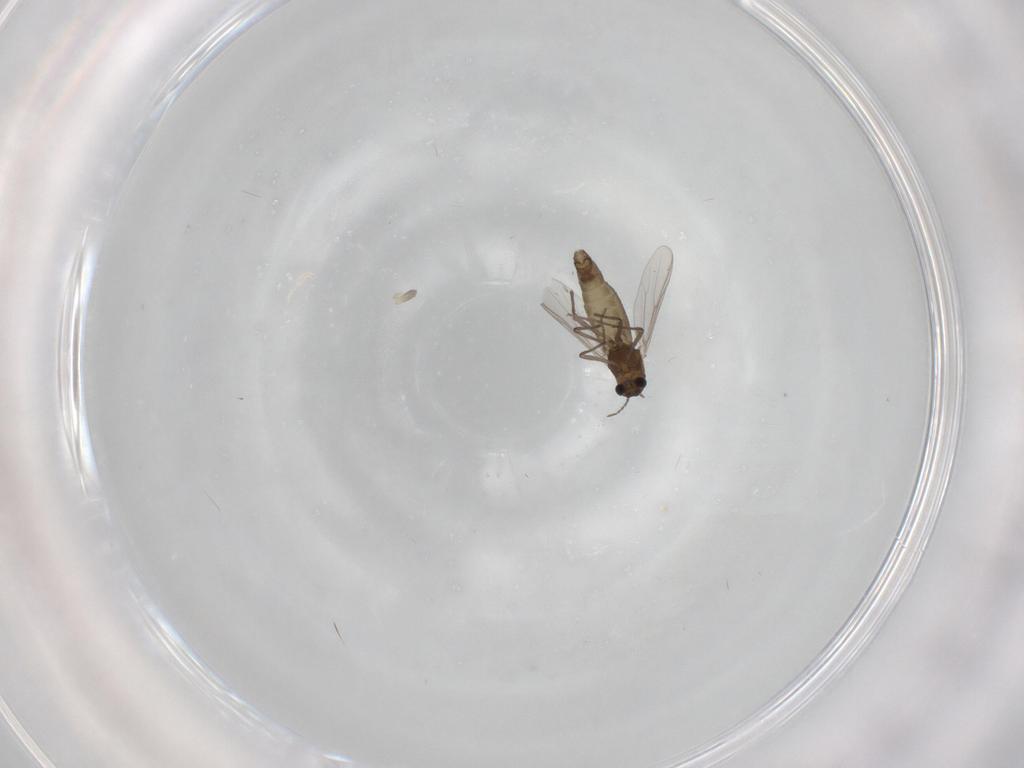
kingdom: Animalia
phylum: Arthropoda
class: Insecta
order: Diptera
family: Chironomidae
